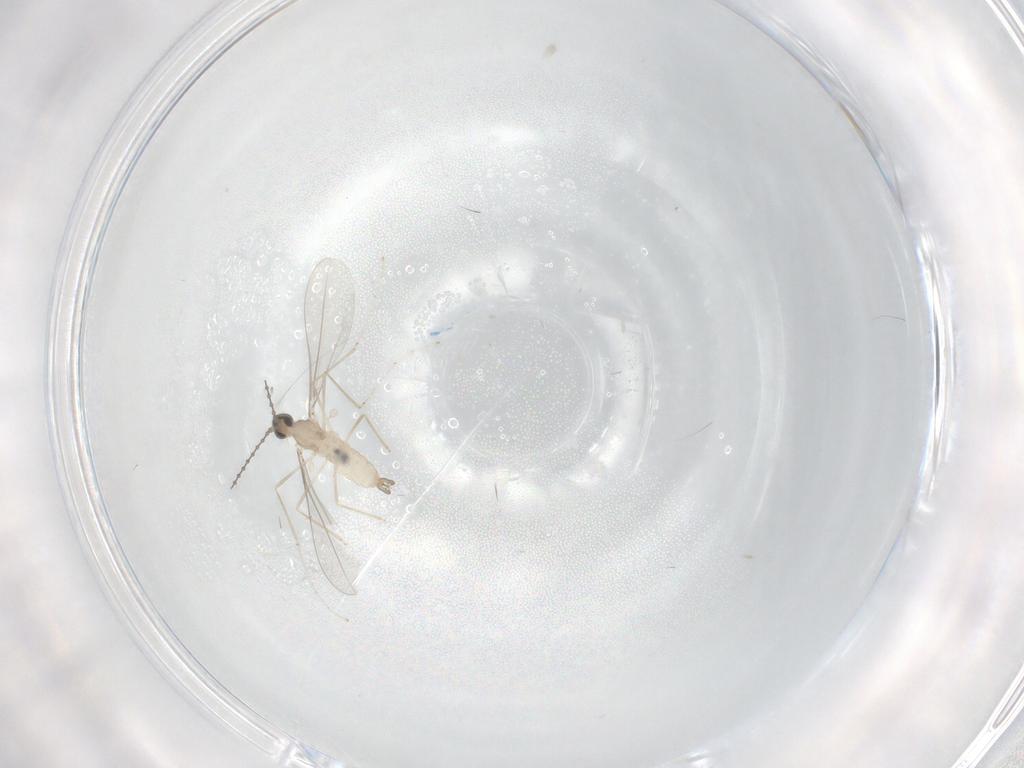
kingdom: Animalia
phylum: Arthropoda
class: Insecta
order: Diptera
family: Cecidomyiidae
